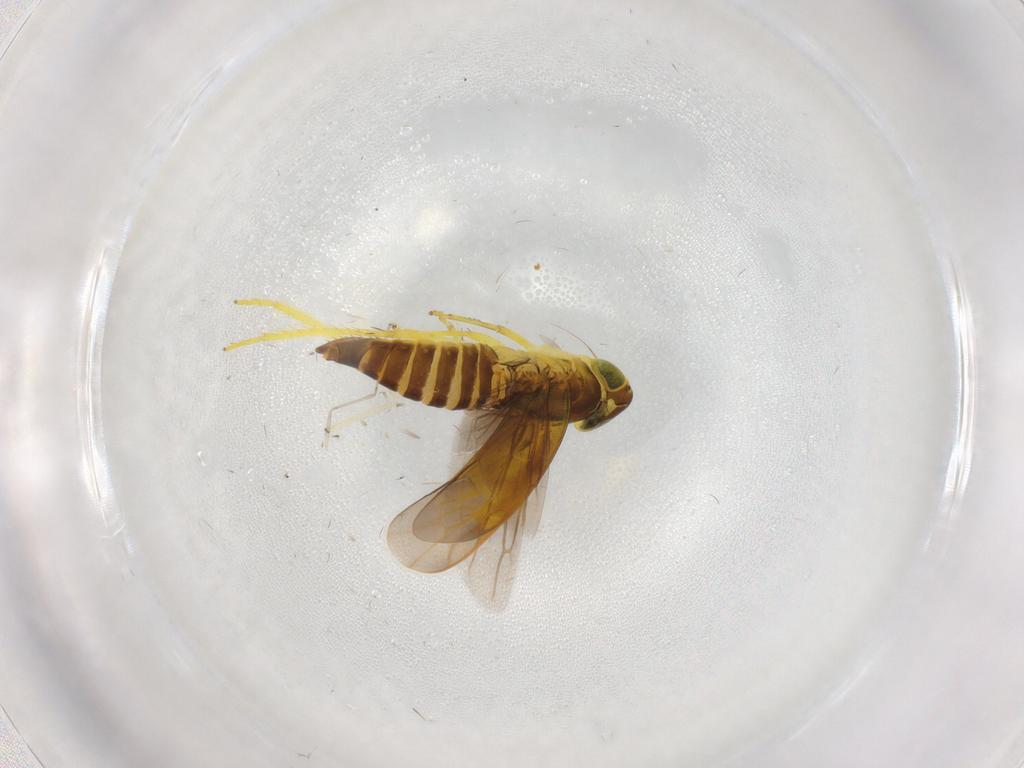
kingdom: Animalia
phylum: Arthropoda
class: Insecta
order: Hemiptera
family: Cicadellidae
